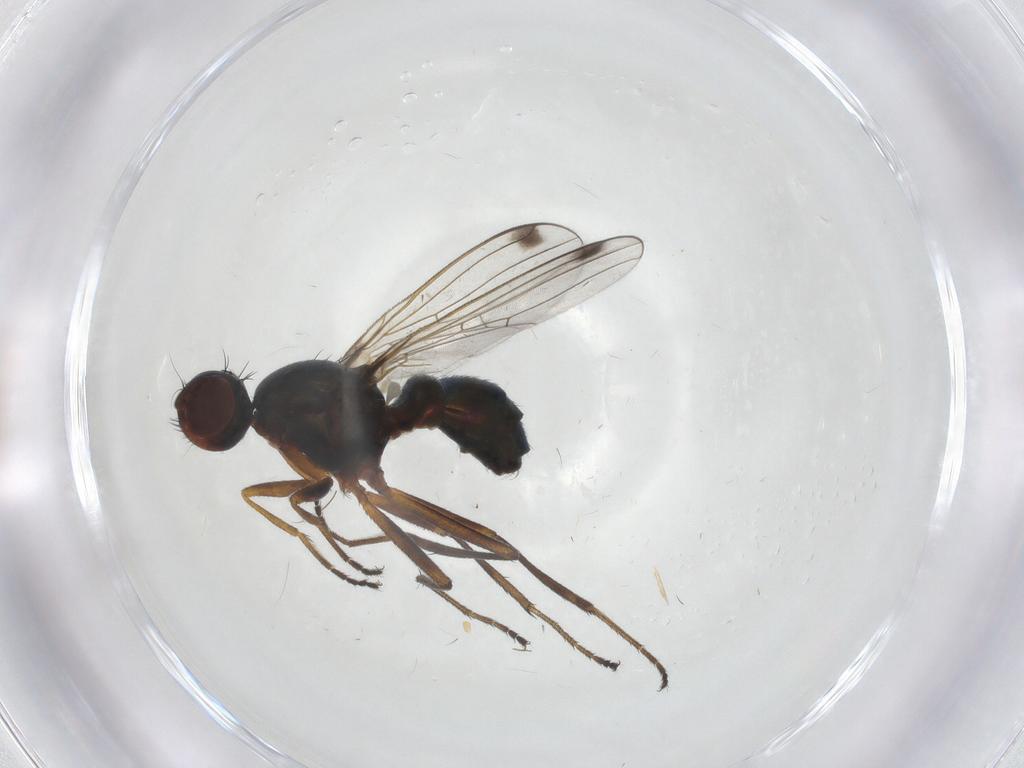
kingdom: Animalia
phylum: Arthropoda
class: Insecta
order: Diptera
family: Sepsidae
